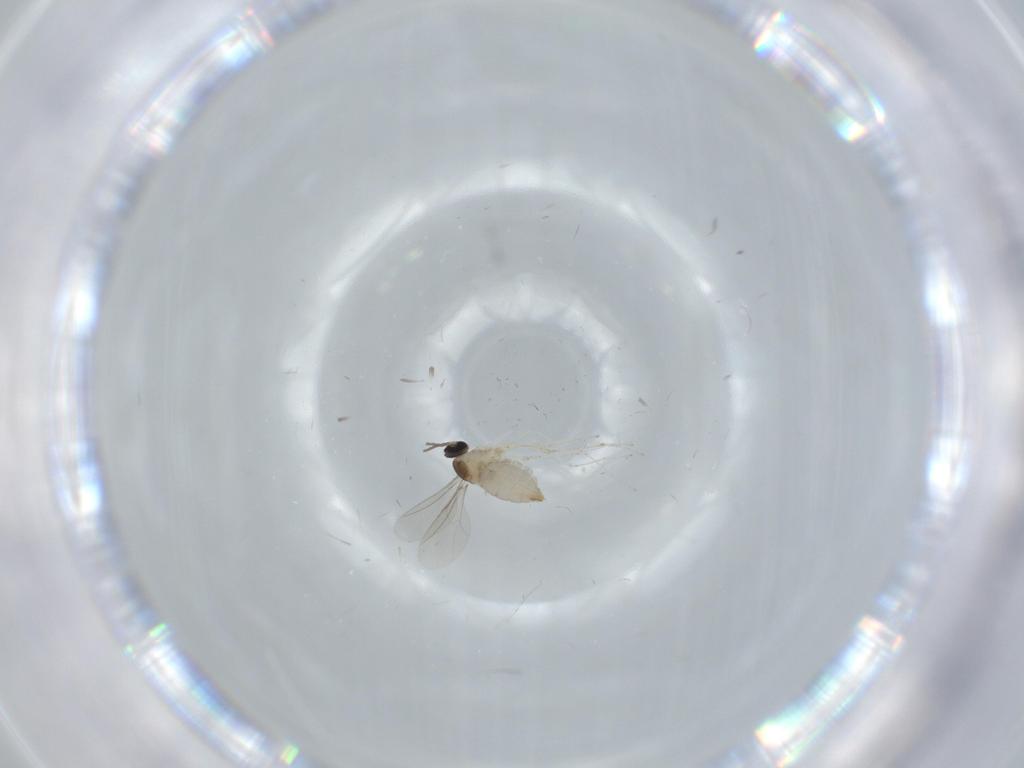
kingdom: Animalia
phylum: Arthropoda
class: Insecta
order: Diptera
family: Cecidomyiidae
